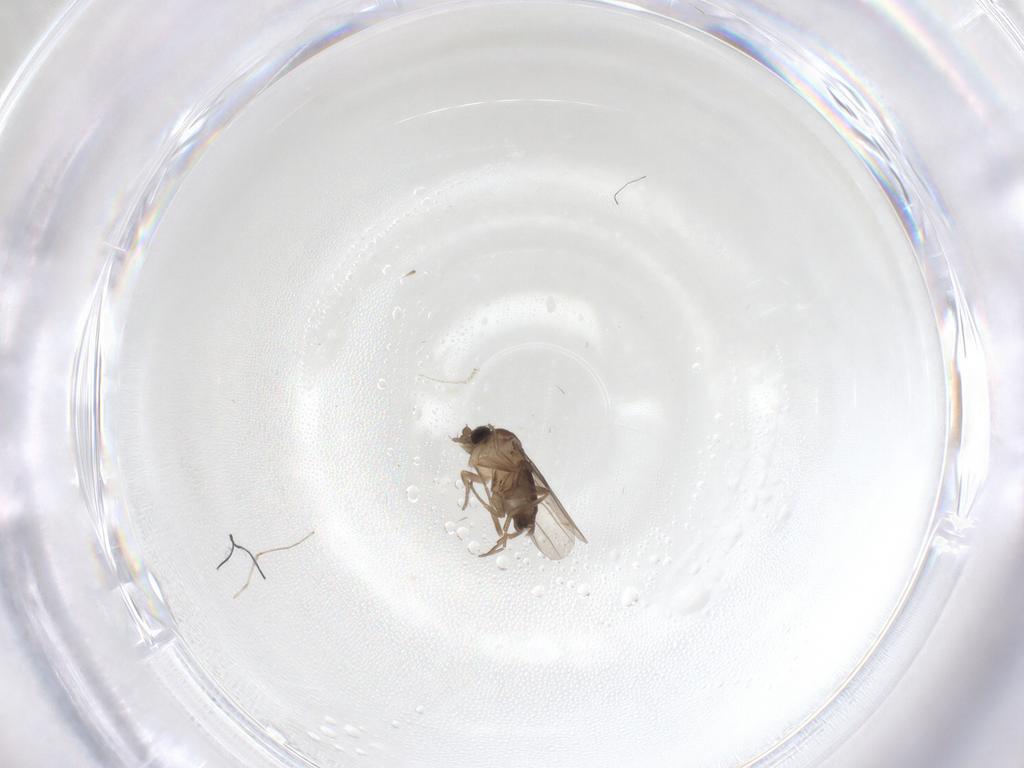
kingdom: Animalia
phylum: Arthropoda
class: Insecta
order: Diptera
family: Phoridae
